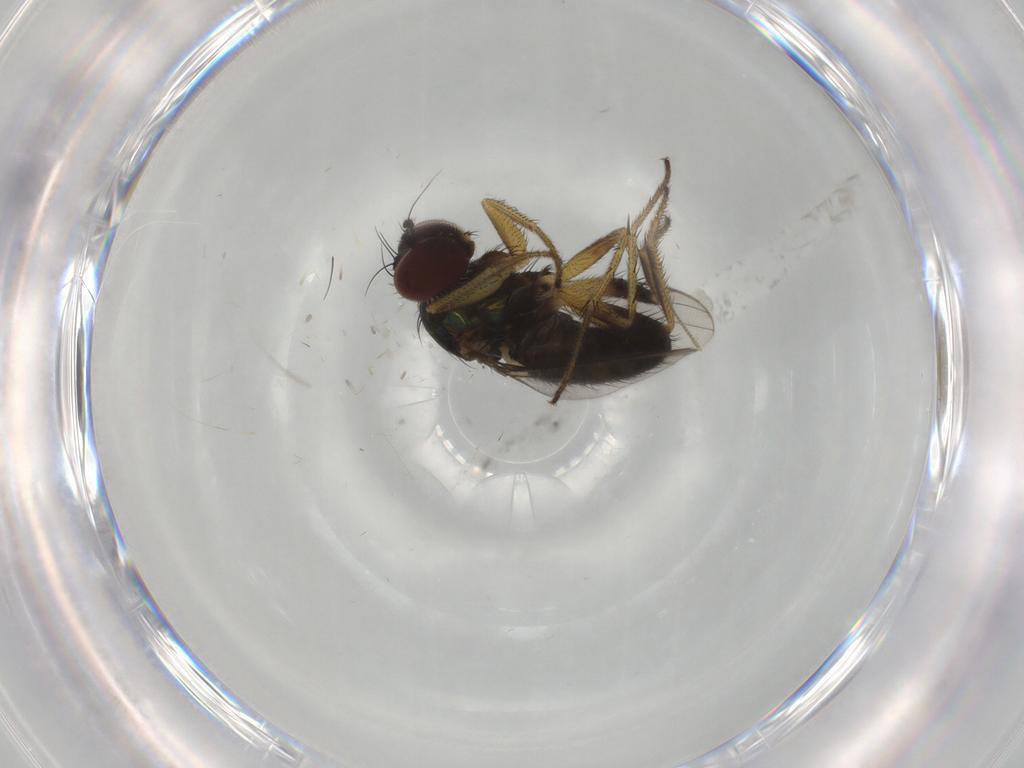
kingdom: Animalia
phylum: Arthropoda
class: Insecta
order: Diptera
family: Dolichopodidae
